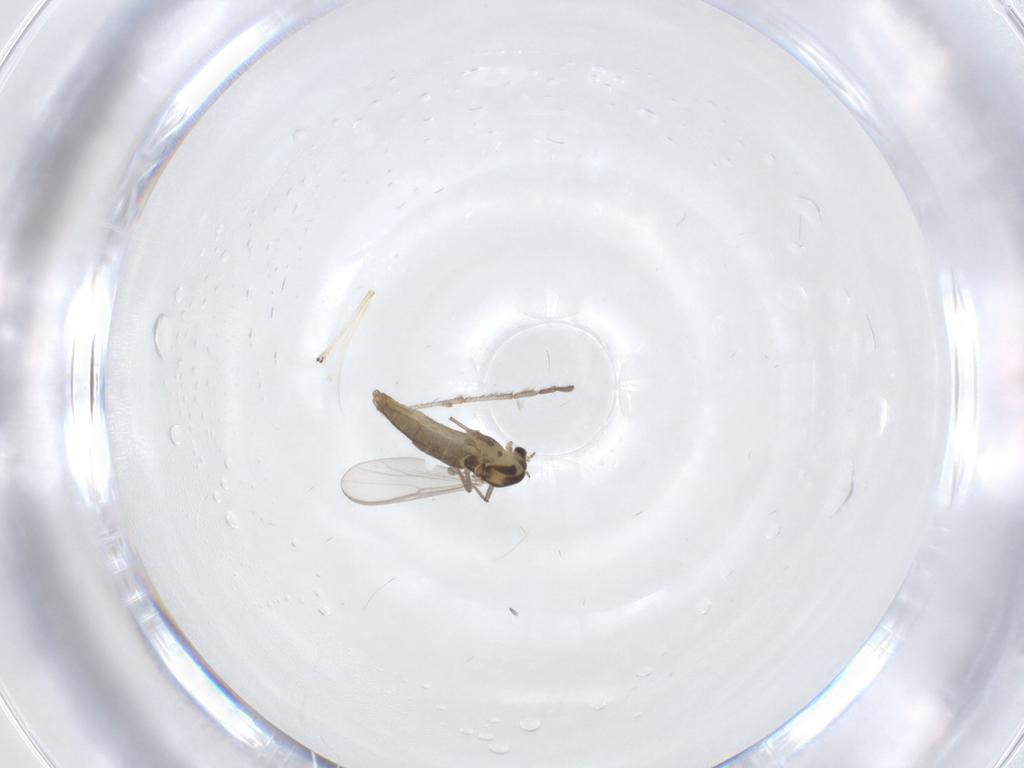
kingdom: Animalia
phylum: Arthropoda
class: Insecta
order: Diptera
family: Chironomidae
